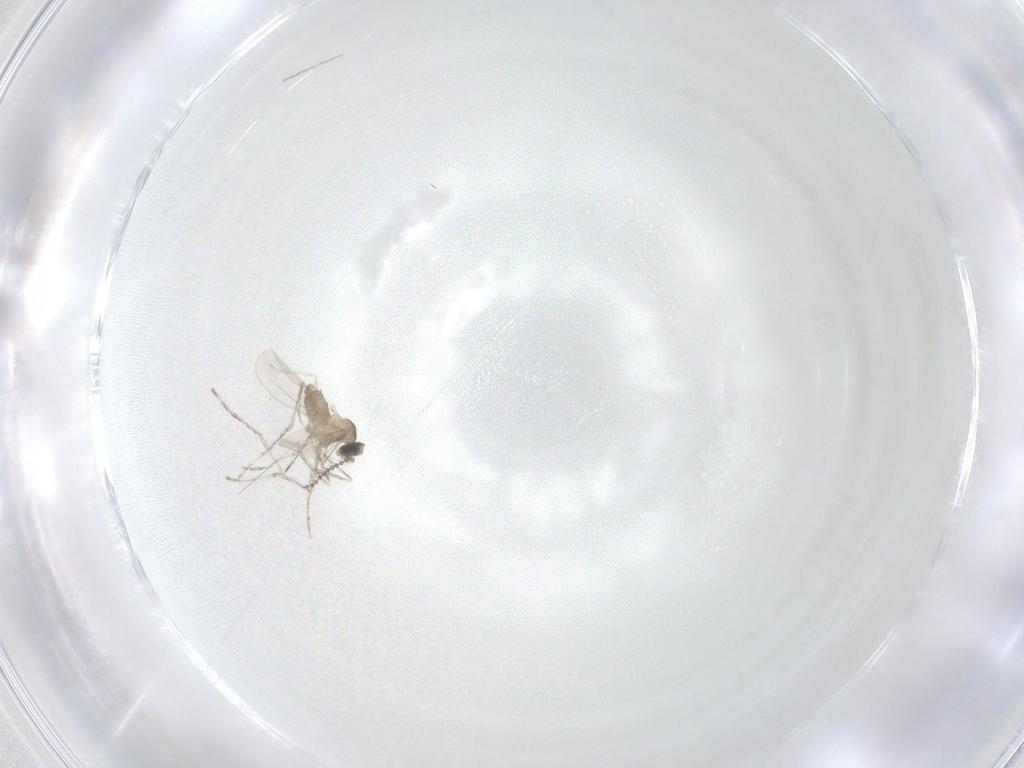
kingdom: Animalia
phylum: Arthropoda
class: Insecta
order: Diptera
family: Cecidomyiidae
